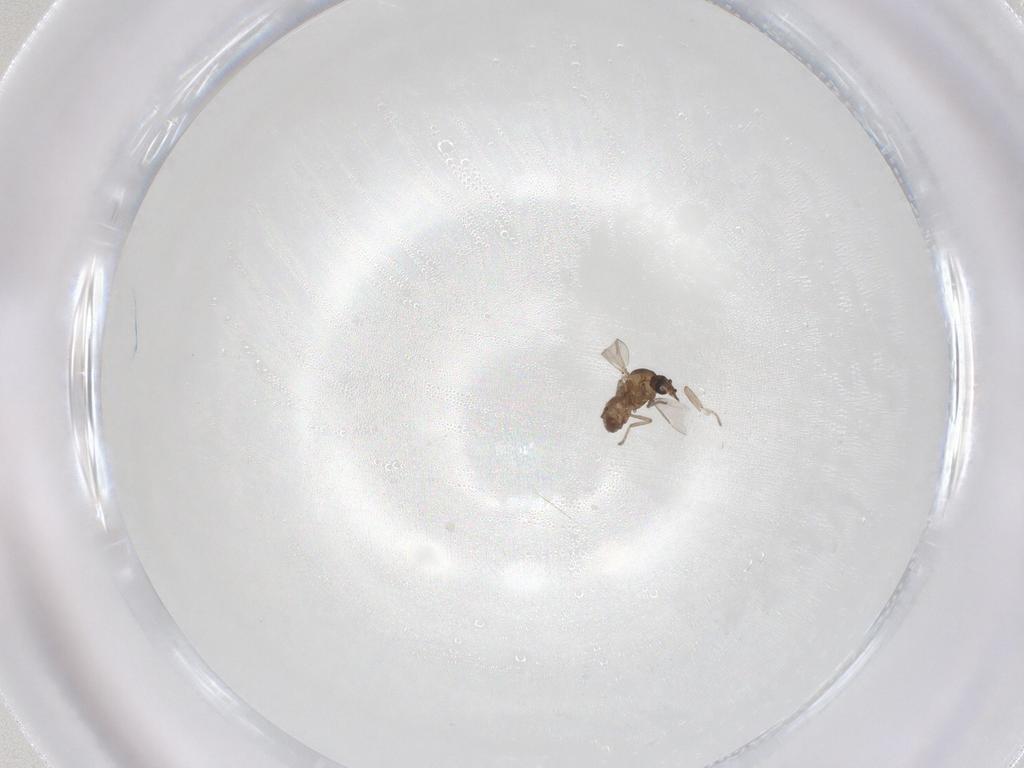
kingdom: Animalia
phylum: Arthropoda
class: Insecta
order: Diptera
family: Ceratopogonidae
